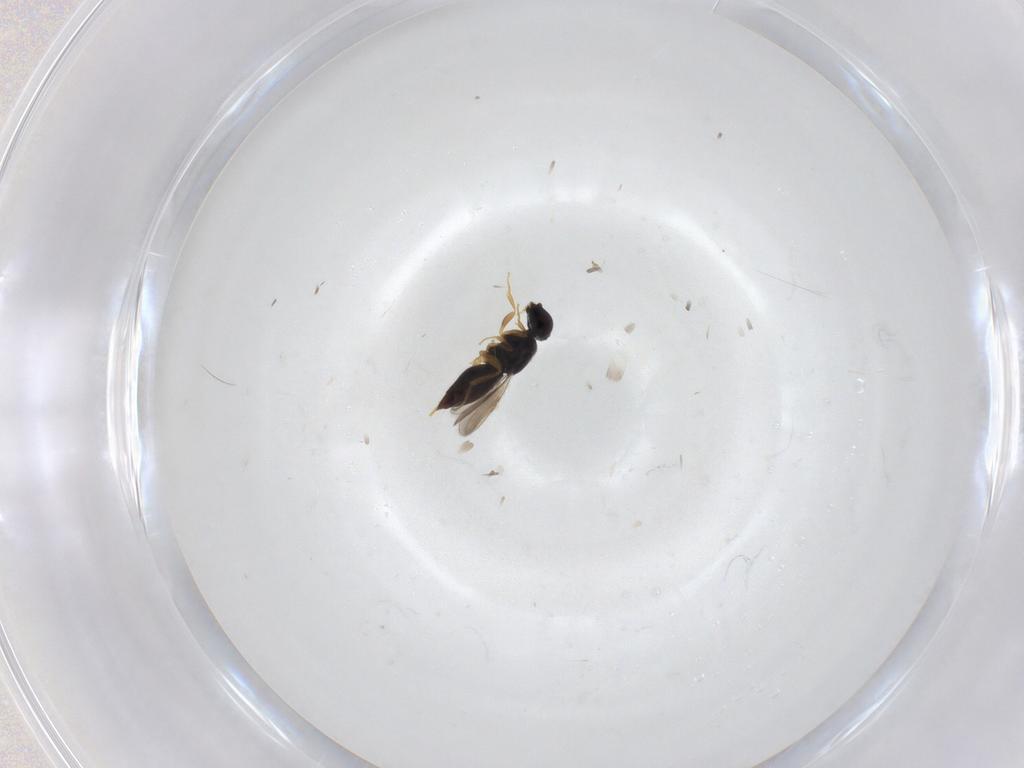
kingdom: Animalia
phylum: Arthropoda
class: Insecta
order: Hymenoptera
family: Ceraphronidae
